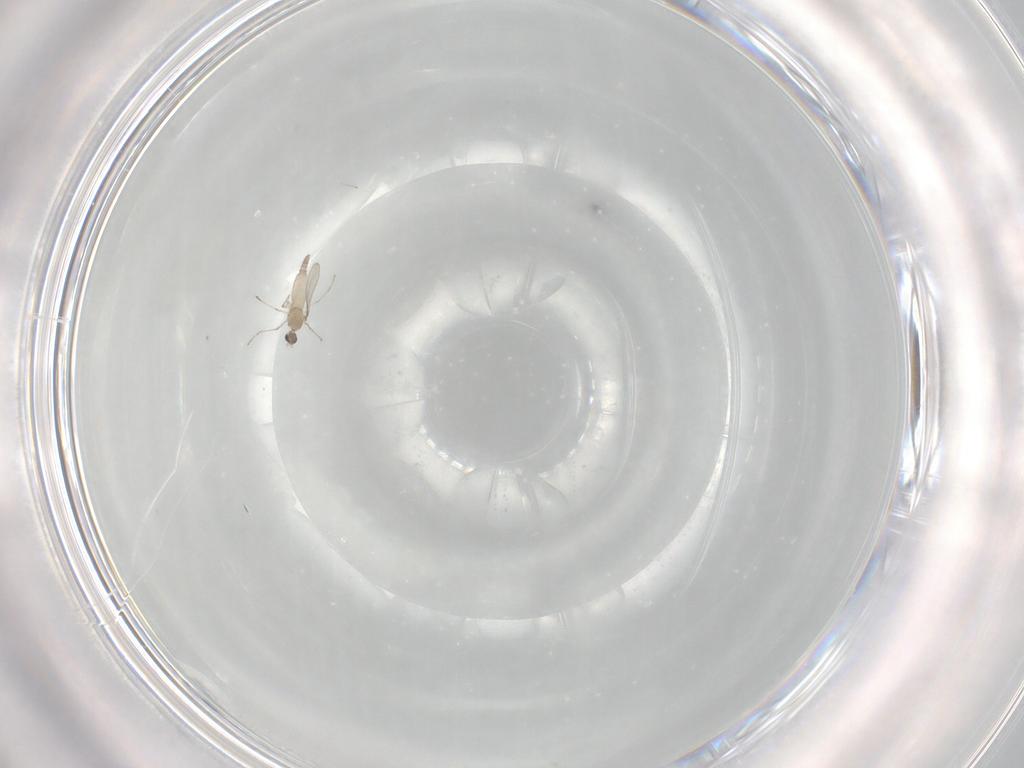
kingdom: Animalia
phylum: Arthropoda
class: Insecta
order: Diptera
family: Cecidomyiidae
